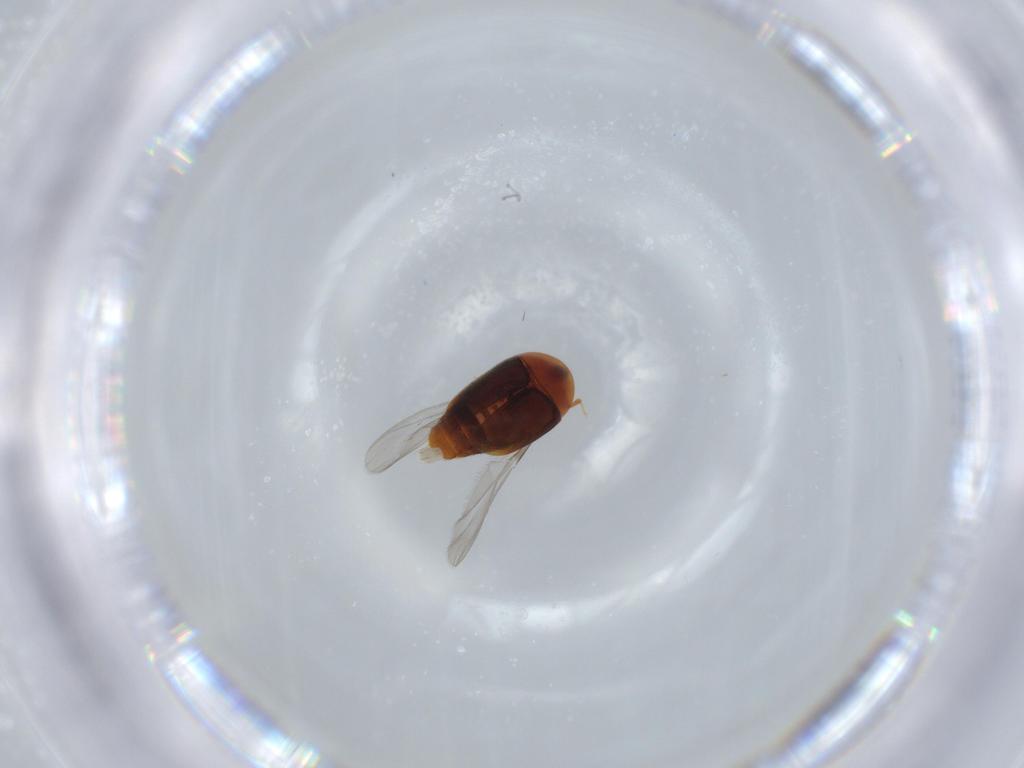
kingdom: Animalia
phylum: Arthropoda
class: Insecta
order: Coleoptera
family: Corylophidae
